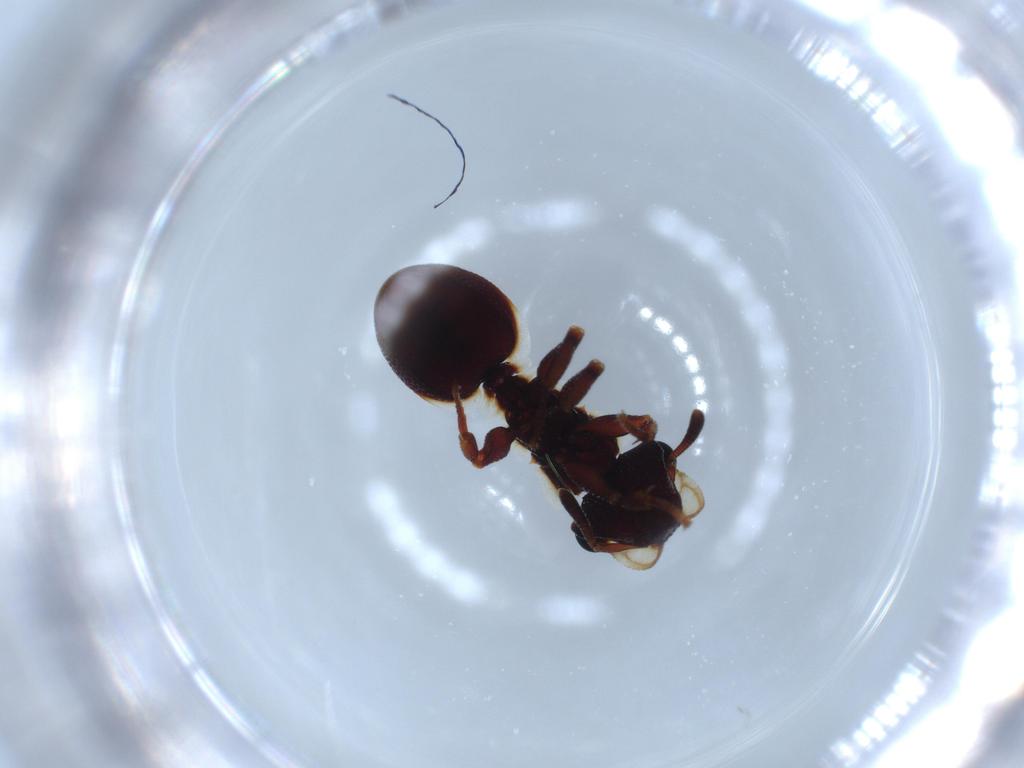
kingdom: Animalia
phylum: Arthropoda
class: Insecta
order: Hymenoptera
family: Formicidae
